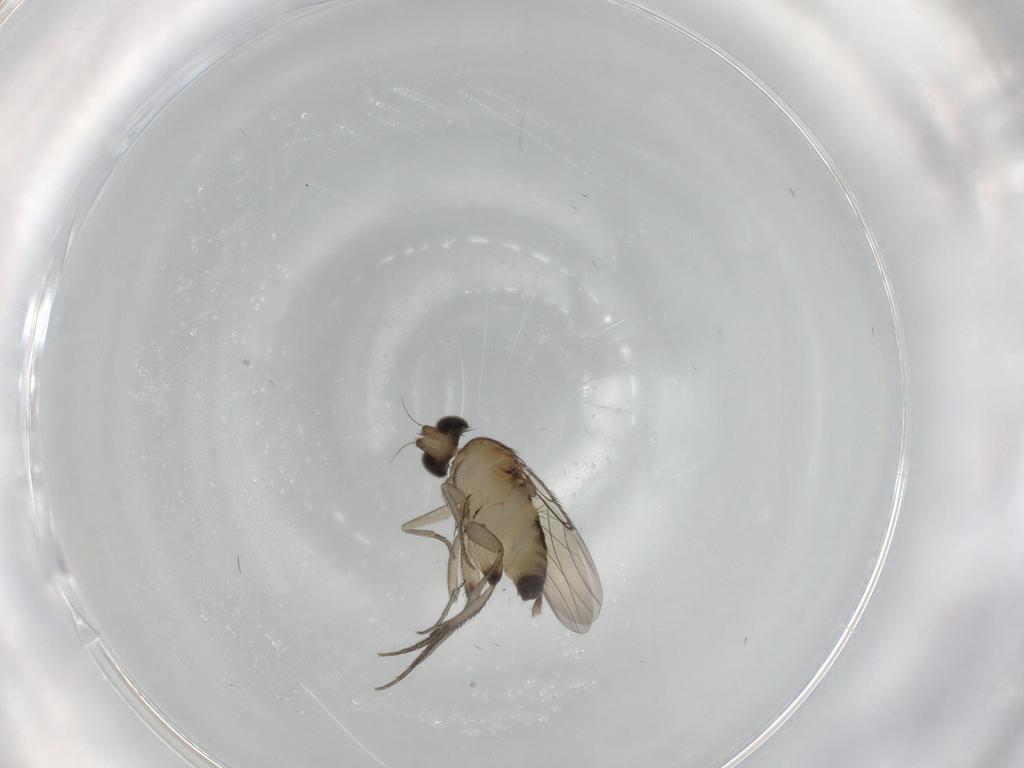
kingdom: Animalia
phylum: Arthropoda
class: Insecta
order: Diptera
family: Phoridae
